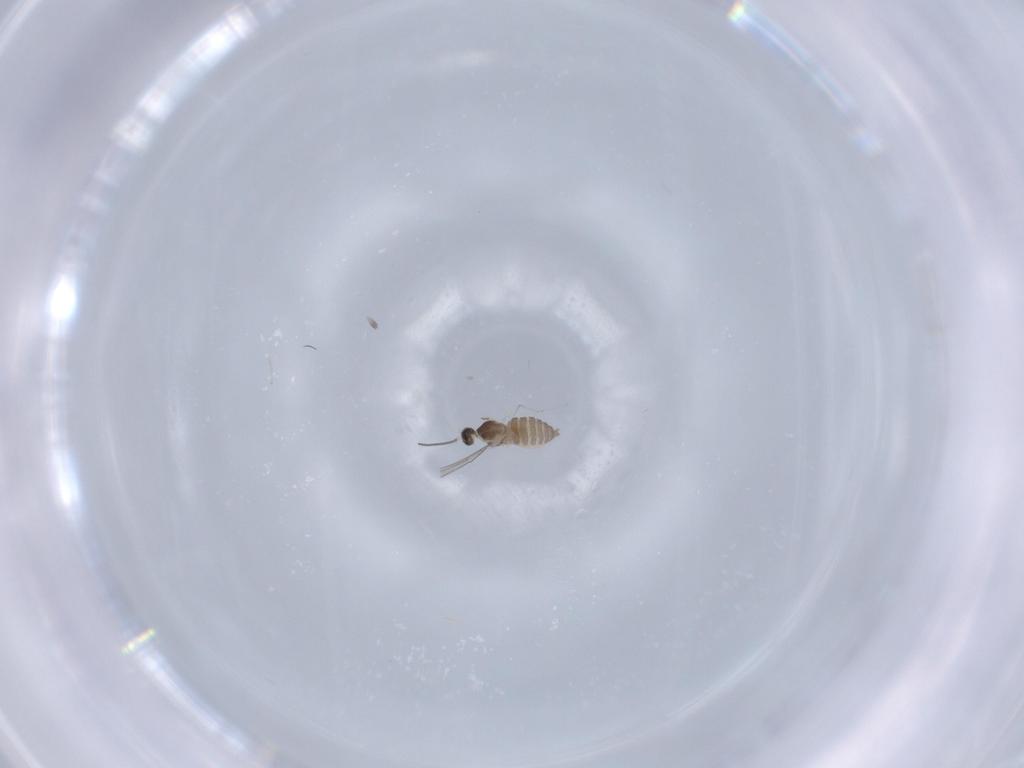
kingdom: Animalia
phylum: Arthropoda
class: Insecta
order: Diptera
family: Cecidomyiidae
